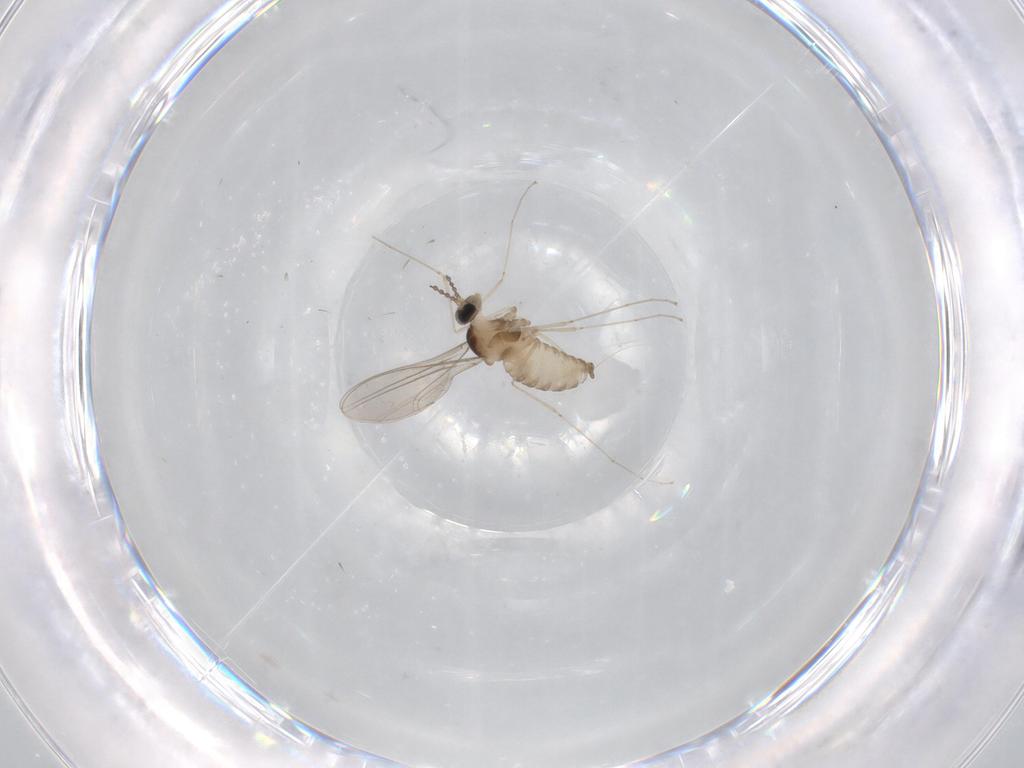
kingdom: Animalia
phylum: Arthropoda
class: Insecta
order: Diptera
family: Cecidomyiidae
